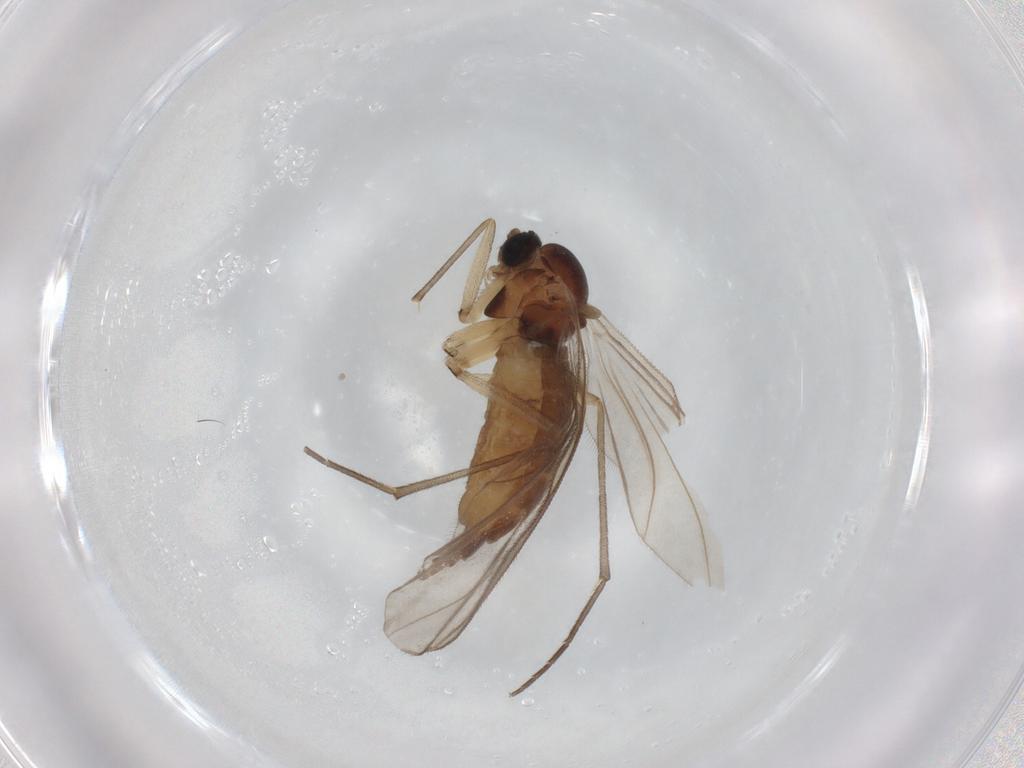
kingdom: Animalia
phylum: Arthropoda
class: Insecta
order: Diptera
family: Sciaridae
